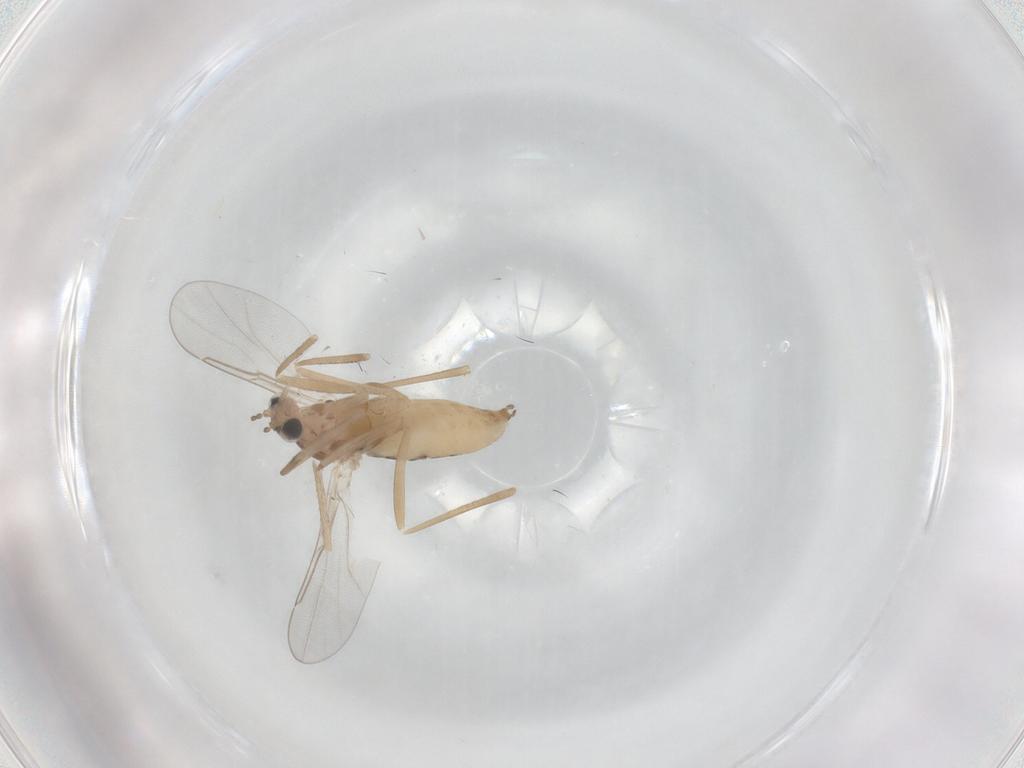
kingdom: Animalia
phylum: Arthropoda
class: Insecta
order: Diptera
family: Cecidomyiidae
